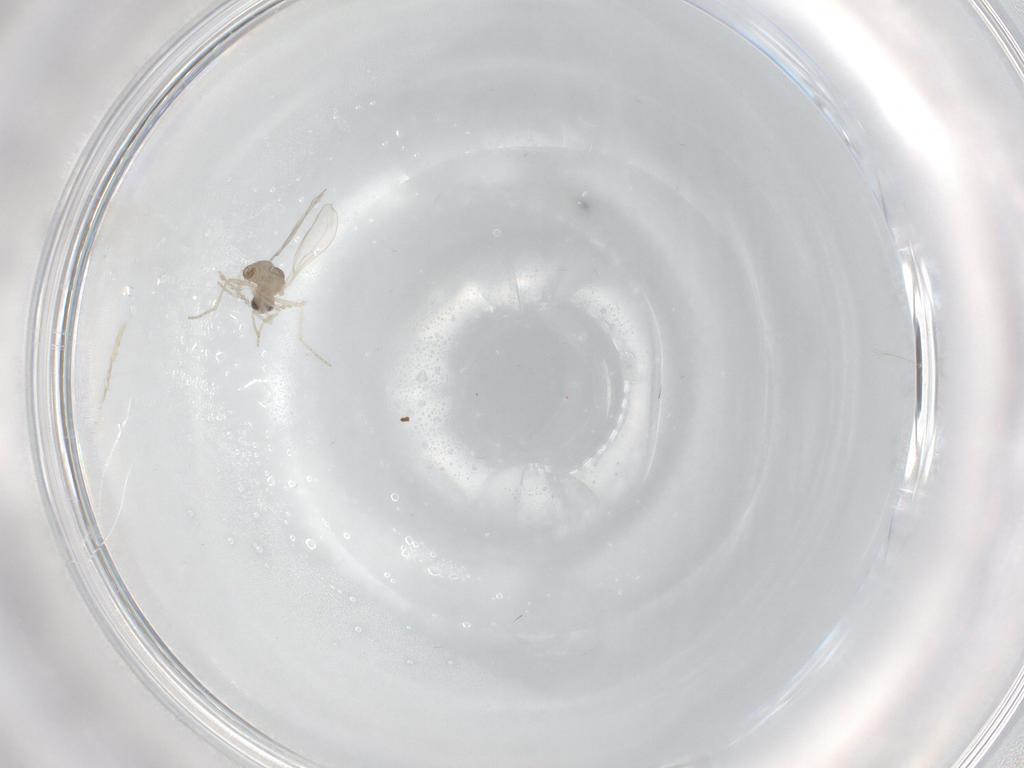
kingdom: Animalia
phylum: Arthropoda
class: Insecta
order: Diptera
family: Cecidomyiidae
